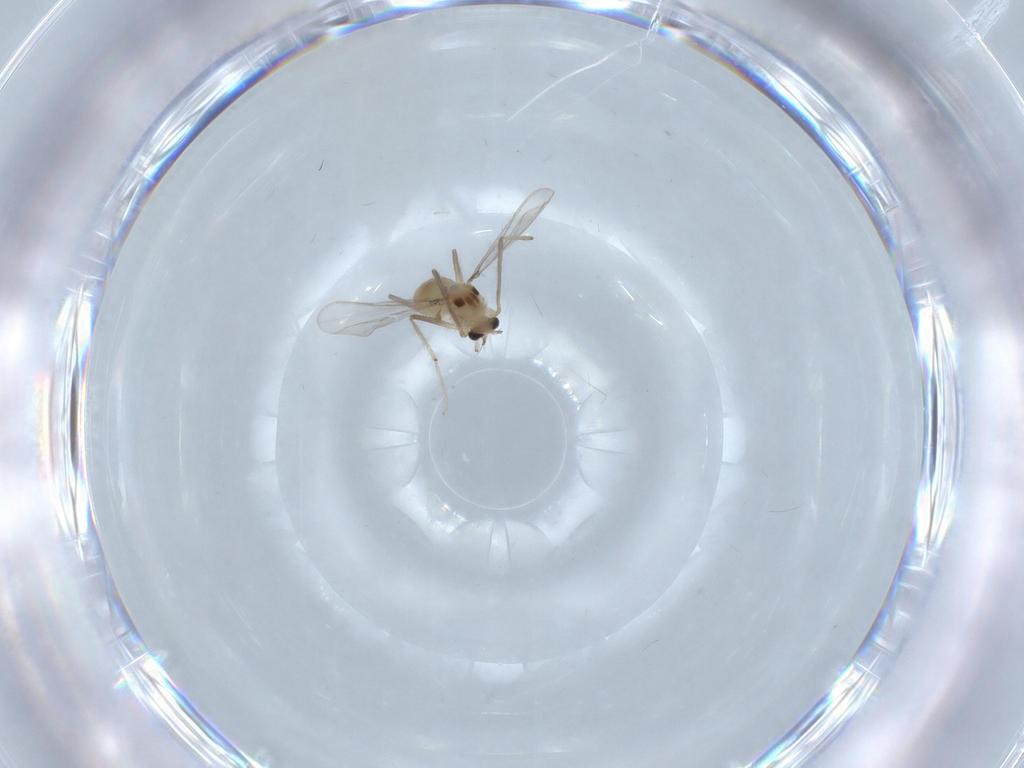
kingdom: Animalia
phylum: Arthropoda
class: Insecta
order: Diptera
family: Chironomidae
